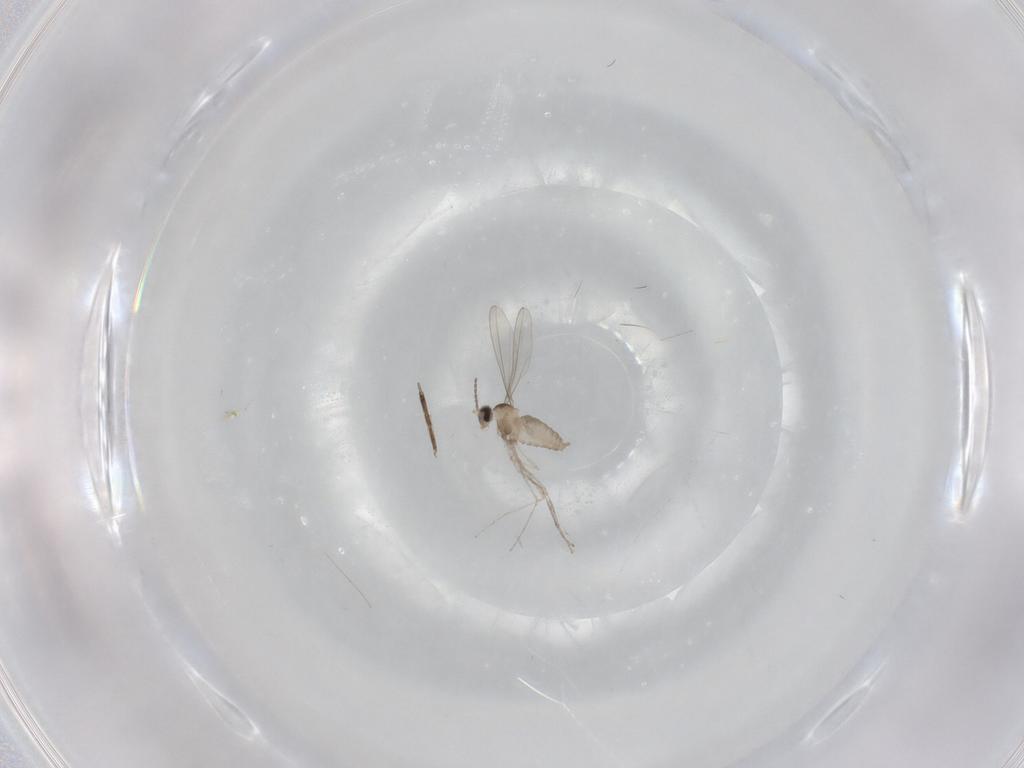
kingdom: Animalia
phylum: Arthropoda
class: Insecta
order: Diptera
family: Cecidomyiidae
